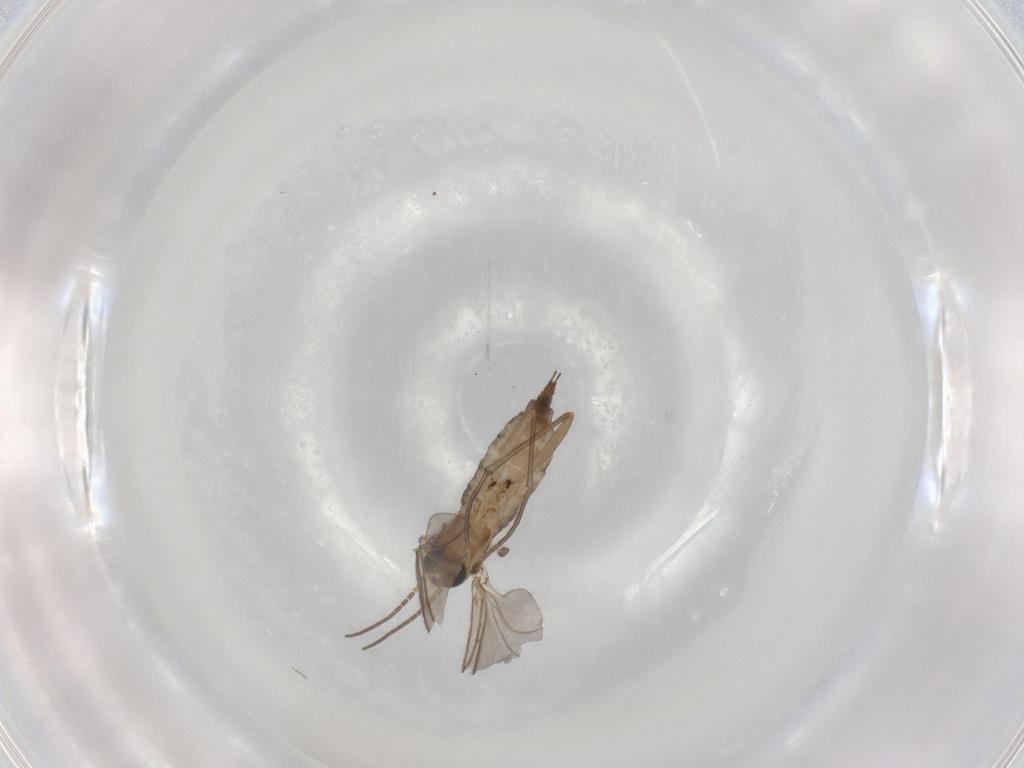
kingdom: Animalia
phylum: Arthropoda
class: Insecta
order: Diptera
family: Sciaridae
